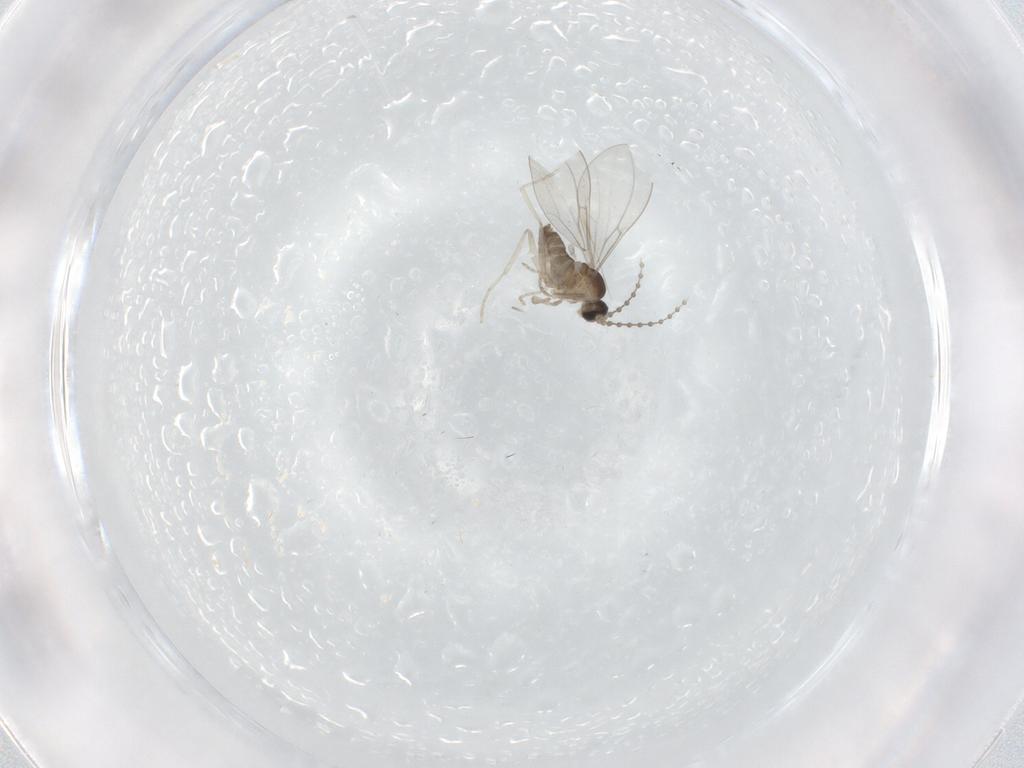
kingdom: Animalia
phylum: Arthropoda
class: Insecta
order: Diptera
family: Cecidomyiidae
